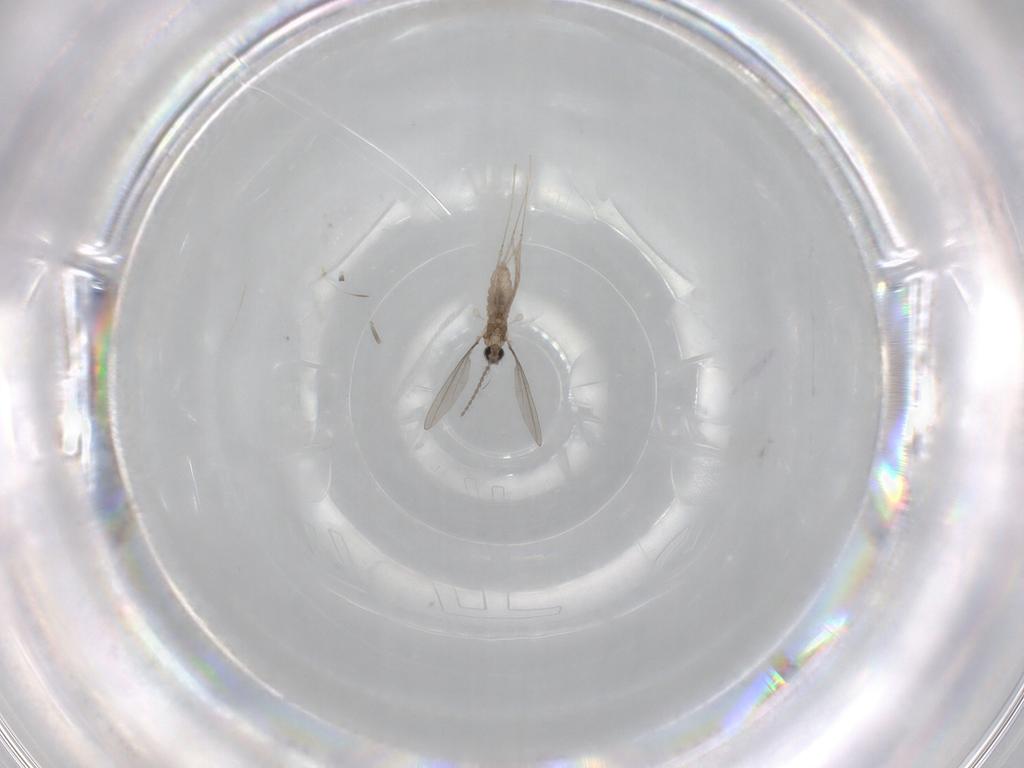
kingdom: Animalia
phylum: Arthropoda
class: Insecta
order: Diptera
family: Cecidomyiidae
